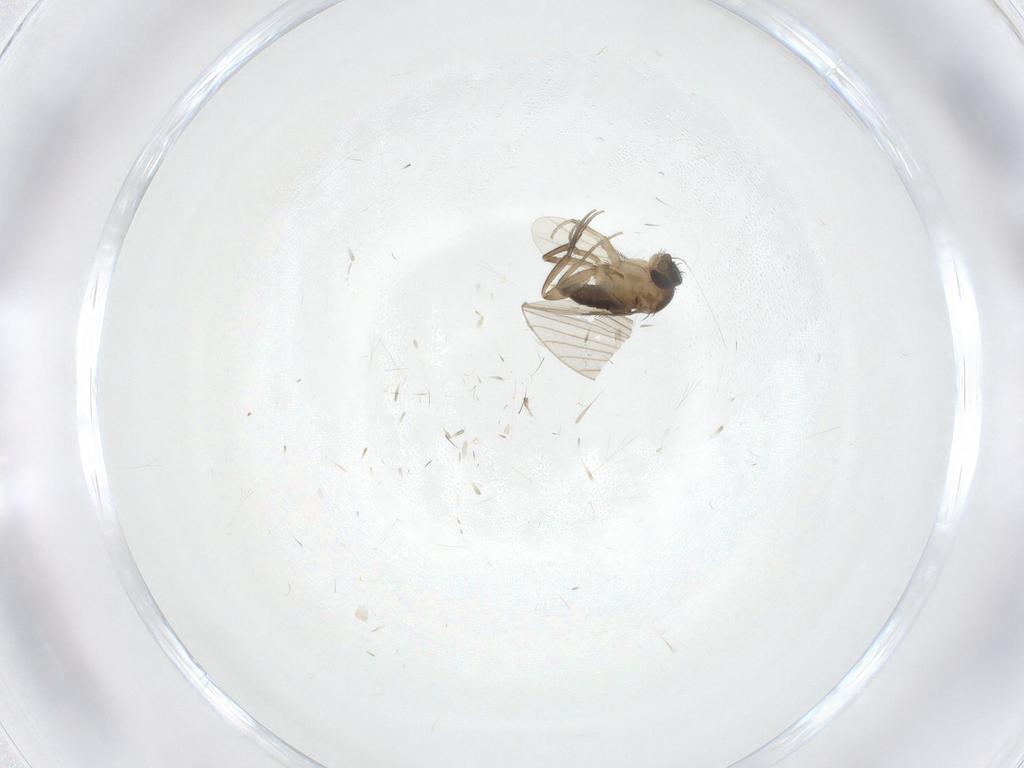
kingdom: Animalia
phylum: Arthropoda
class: Insecta
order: Diptera
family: Phoridae
